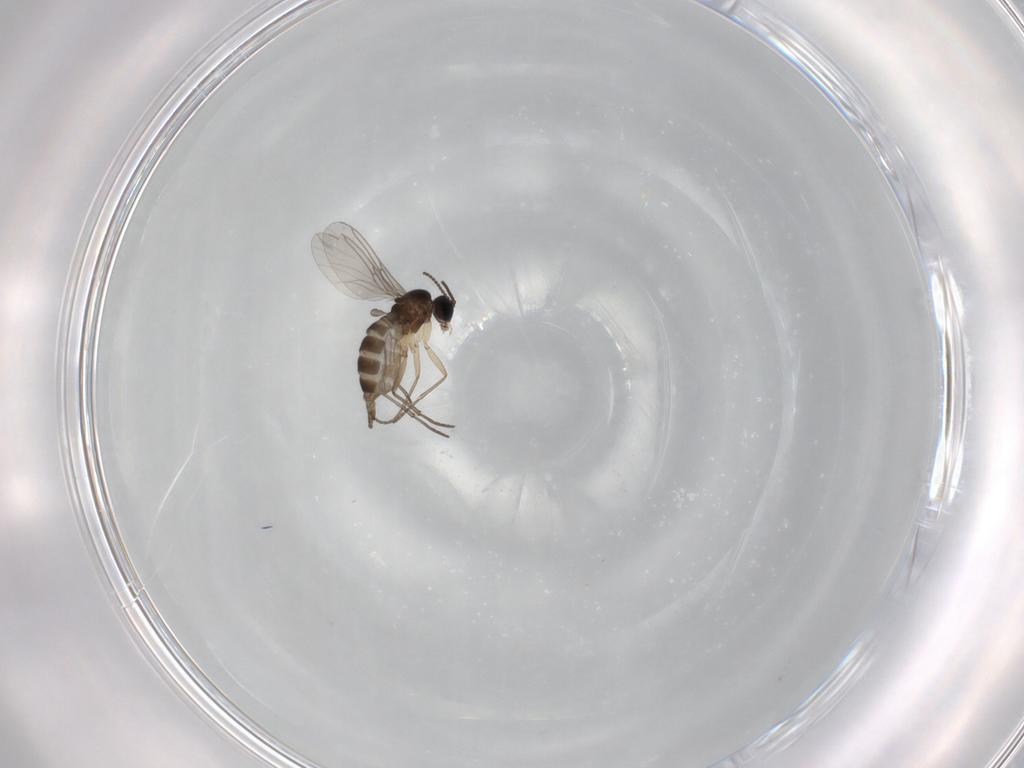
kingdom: Animalia
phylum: Arthropoda
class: Insecta
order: Diptera
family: Sciaridae
